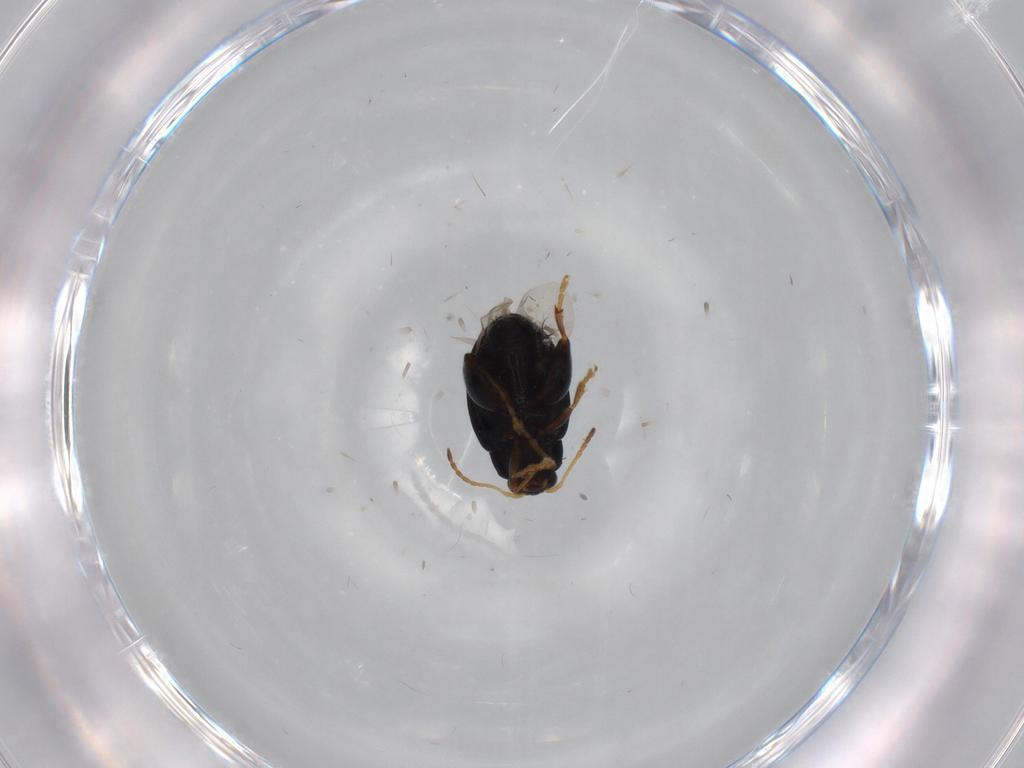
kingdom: Animalia
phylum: Arthropoda
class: Insecta
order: Coleoptera
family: Chrysomelidae
